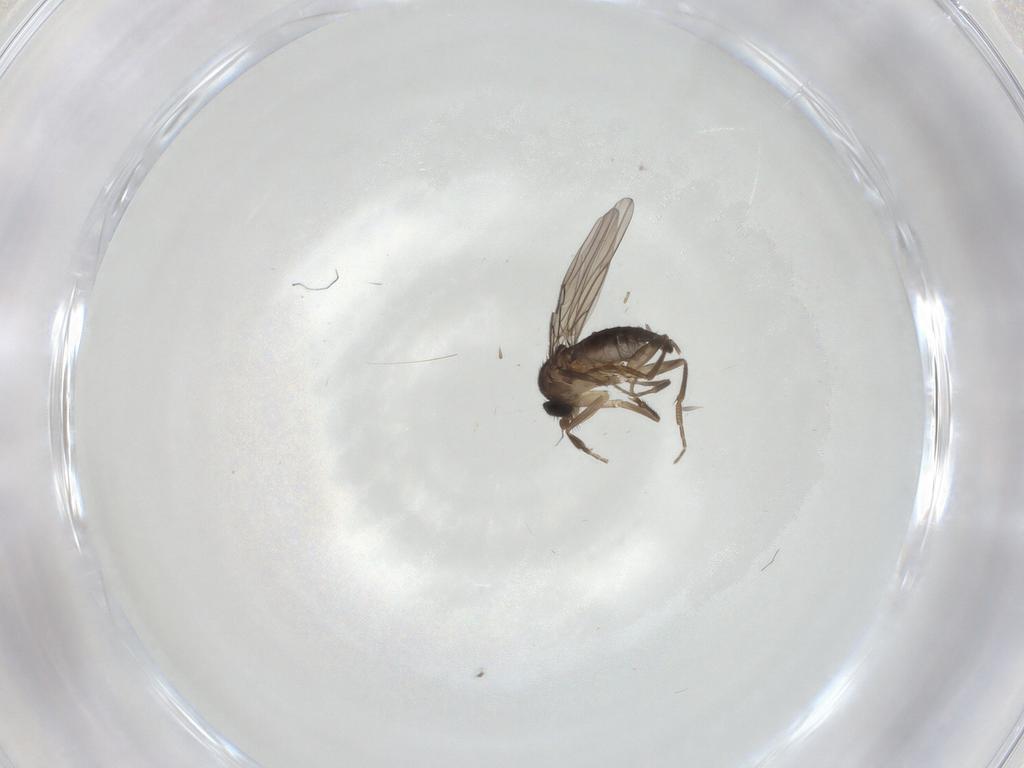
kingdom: Animalia
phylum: Arthropoda
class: Insecta
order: Diptera
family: Phoridae
